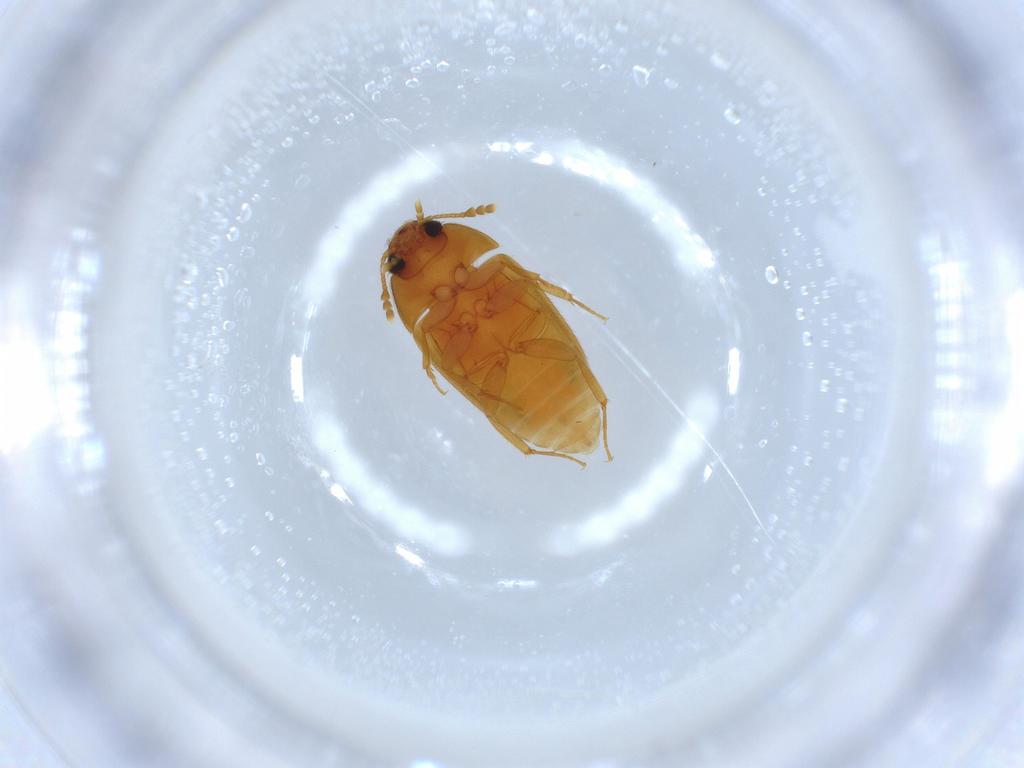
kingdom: Animalia
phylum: Arthropoda
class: Insecta
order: Coleoptera
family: Mycetophagidae
